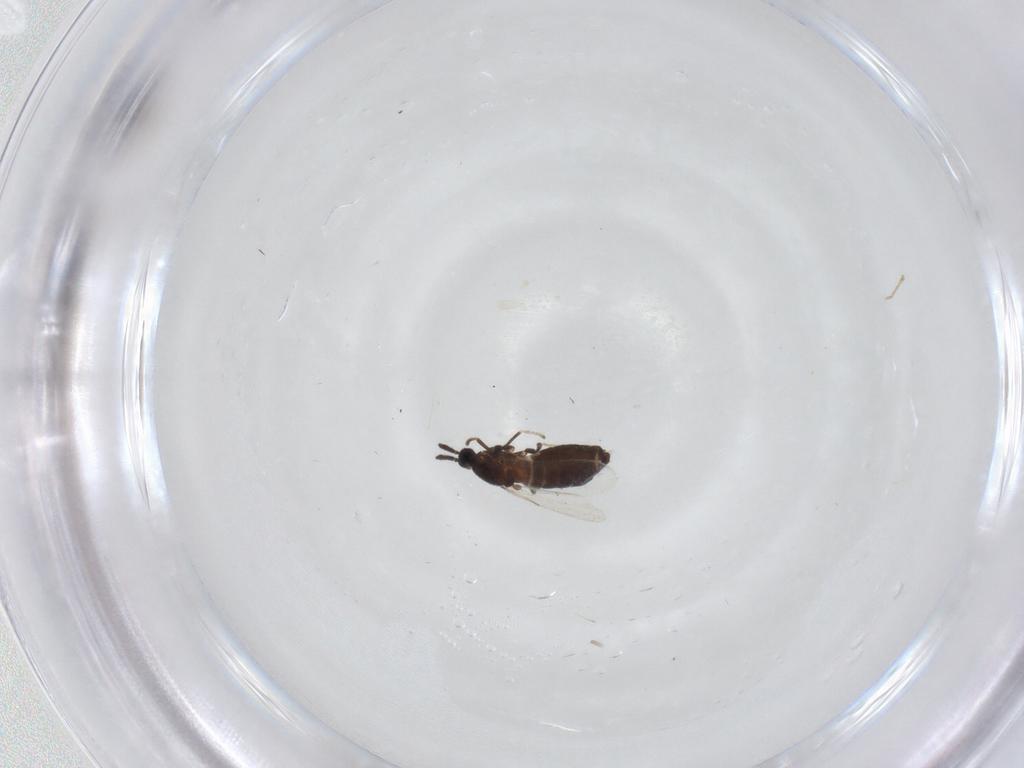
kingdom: Animalia
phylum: Arthropoda
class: Insecta
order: Diptera
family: Scatopsidae
